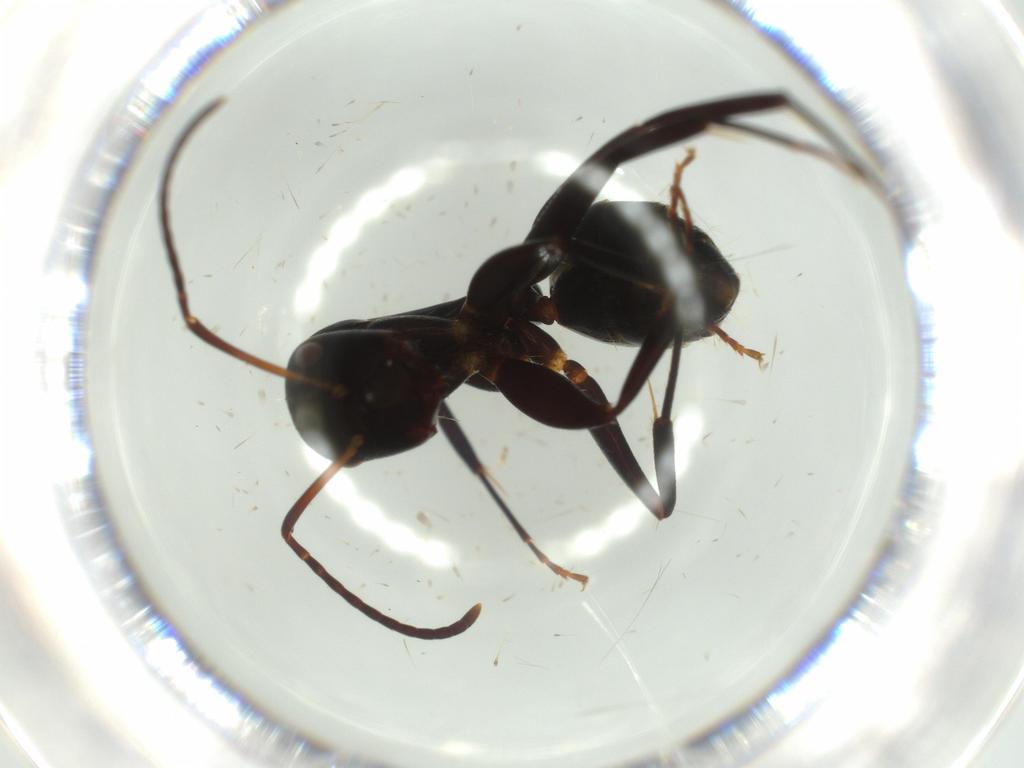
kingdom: Animalia
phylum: Arthropoda
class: Insecta
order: Hymenoptera
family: Formicidae
